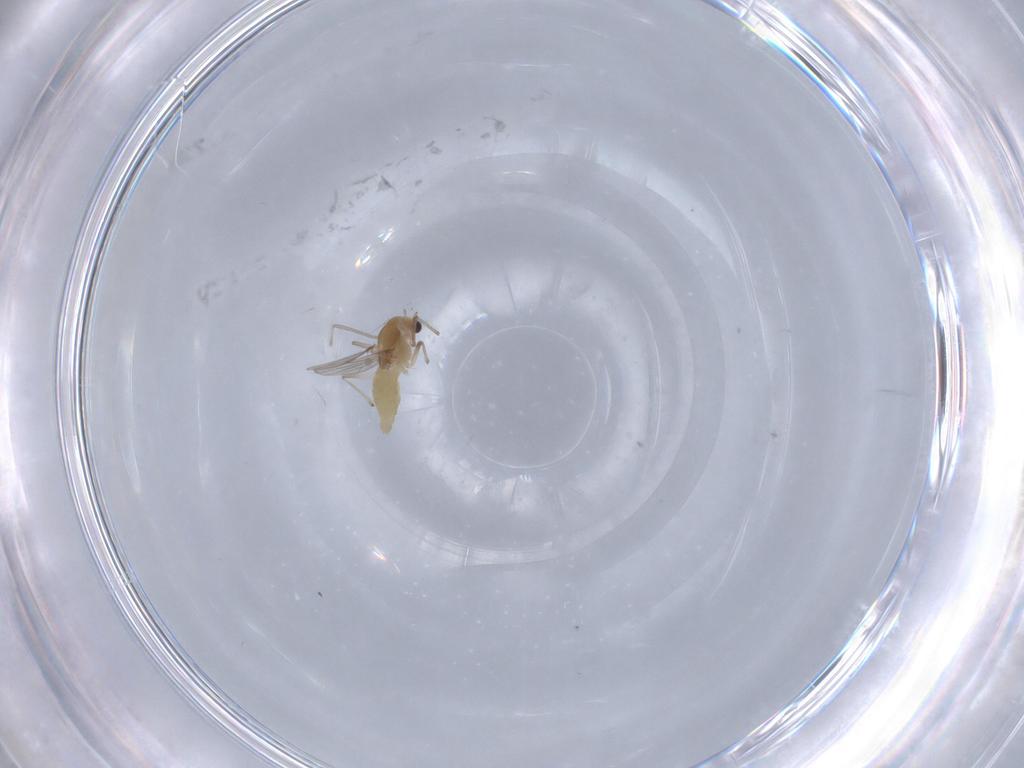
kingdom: Animalia
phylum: Arthropoda
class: Insecta
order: Diptera
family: Chironomidae
